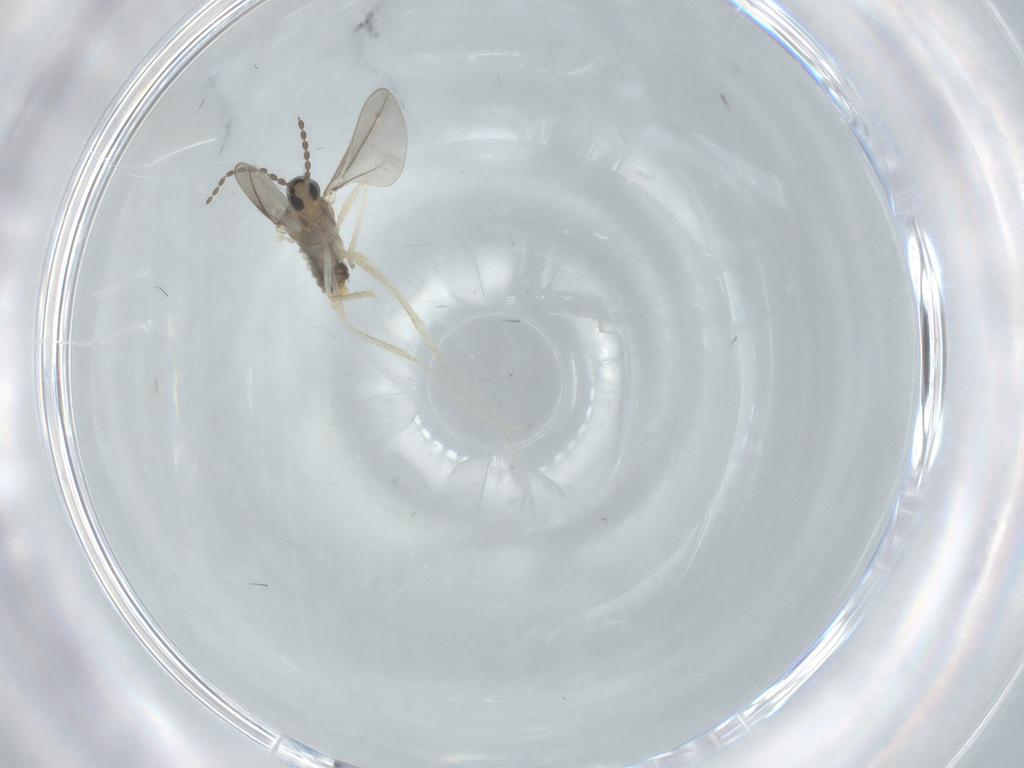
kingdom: Animalia
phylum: Arthropoda
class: Insecta
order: Diptera
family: Cecidomyiidae
